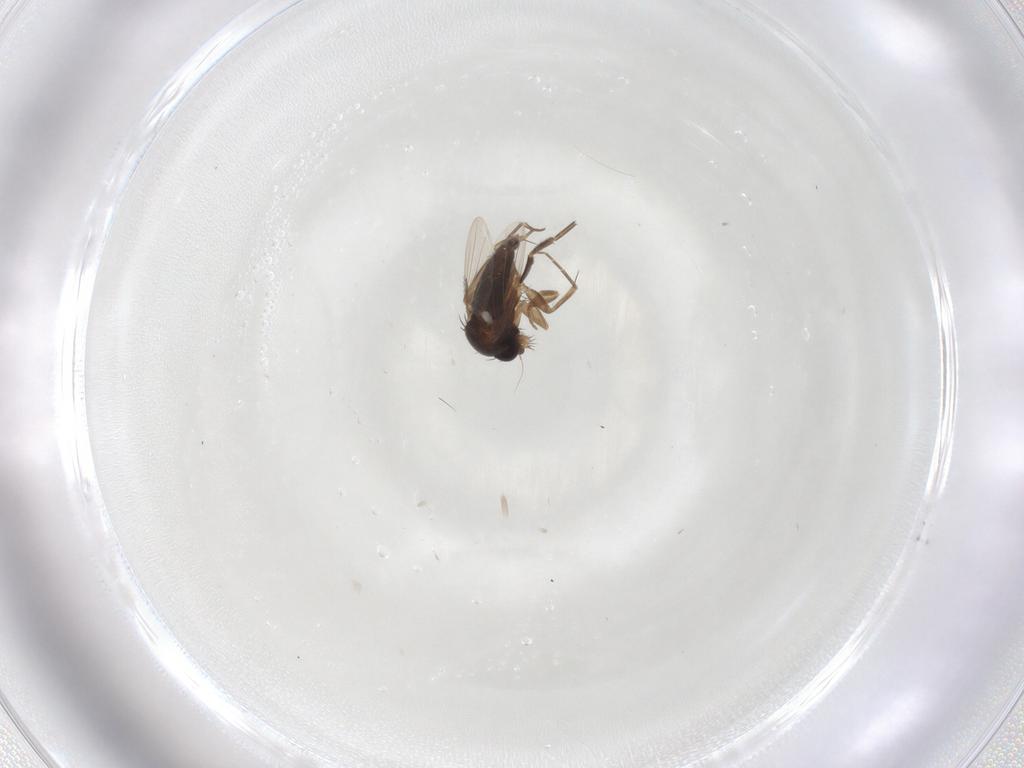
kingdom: Animalia
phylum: Arthropoda
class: Insecta
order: Diptera
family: Phoridae
